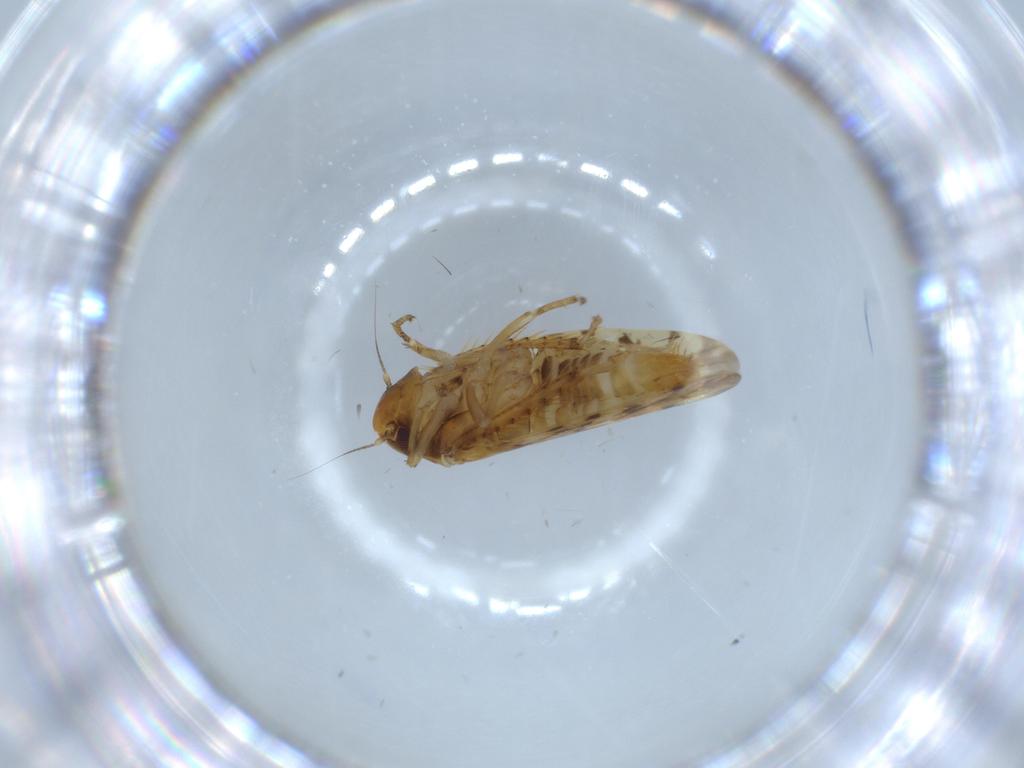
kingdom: Animalia
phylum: Arthropoda
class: Insecta
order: Hemiptera
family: Cicadellidae
